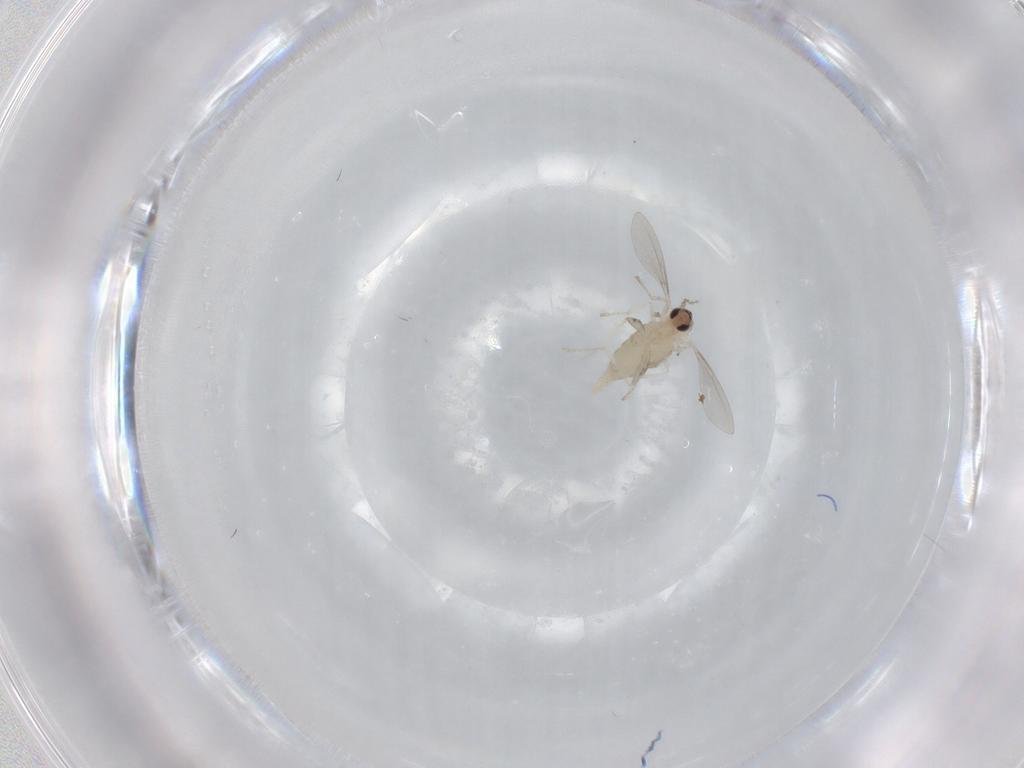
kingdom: Animalia
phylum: Arthropoda
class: Insecta
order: Diptera
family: Cecidomyiidae
